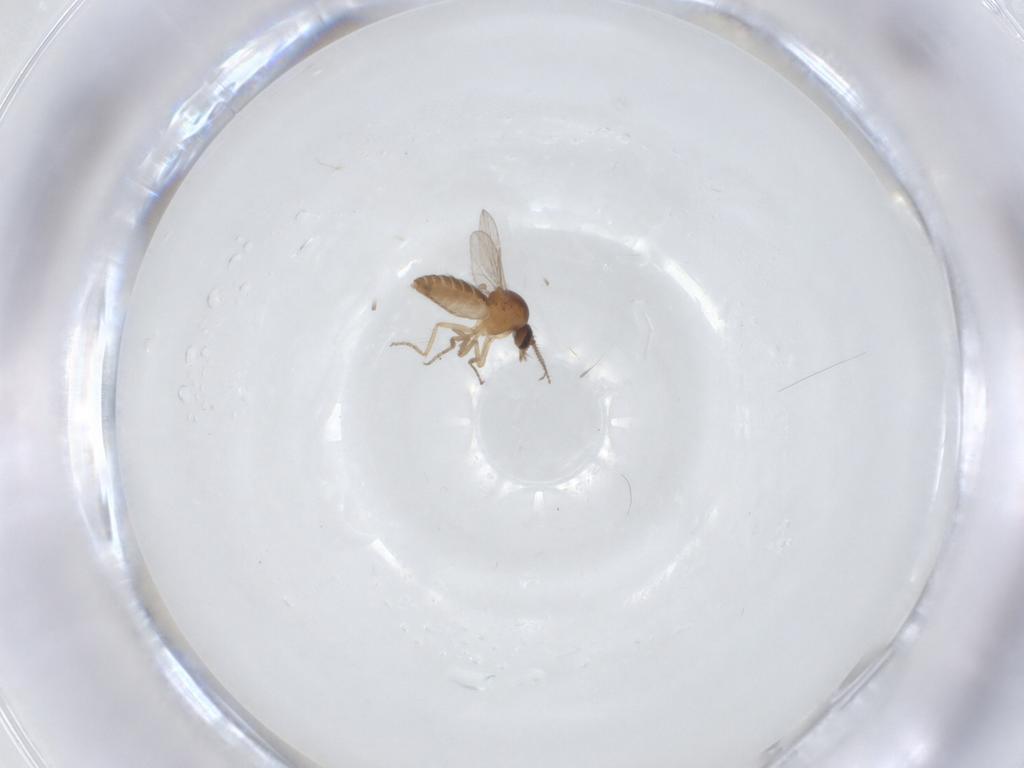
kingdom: Animalia
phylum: Arthropoda
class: Insecta
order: Diptera
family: Ceratopogonidae
